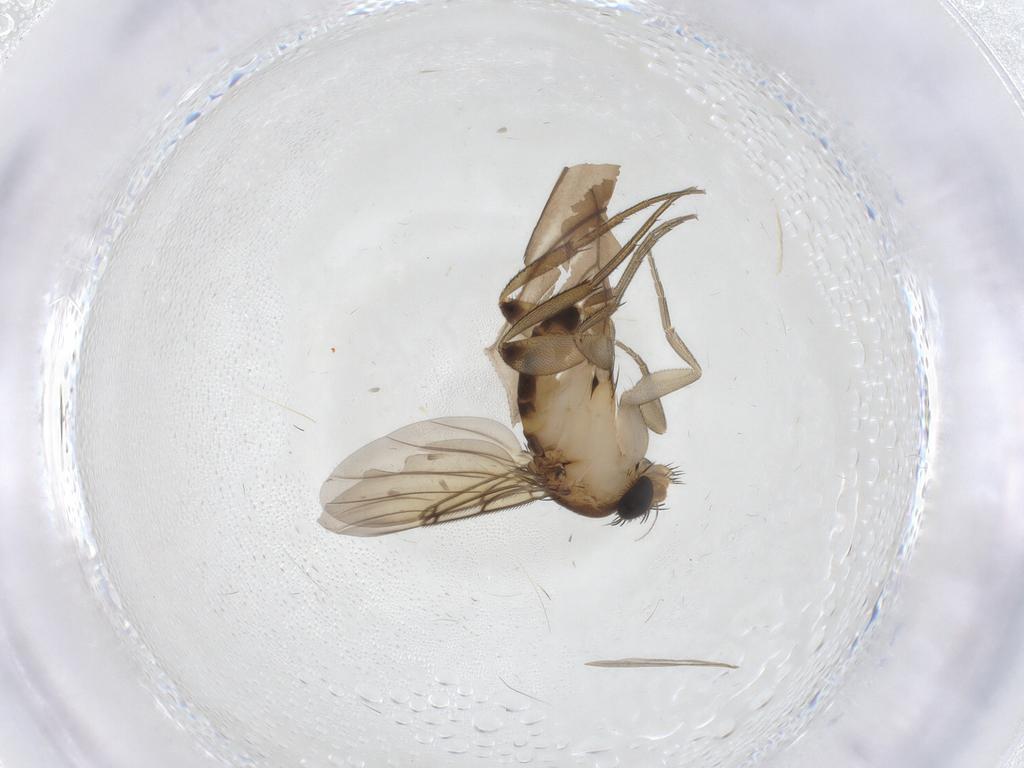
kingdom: Animalia
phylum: Arthropoda
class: Insecta
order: Diptera
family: Phoridae
